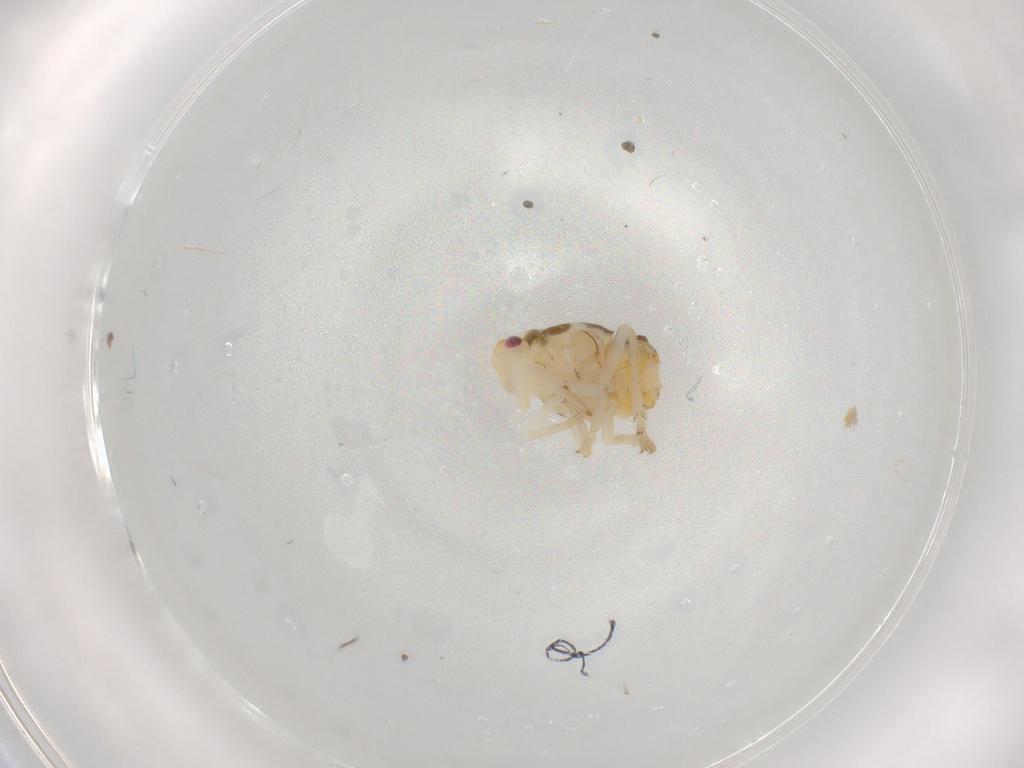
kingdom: Animalia
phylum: Arthropoda
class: Insecta
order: Hemiptera
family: Ricaniidae
